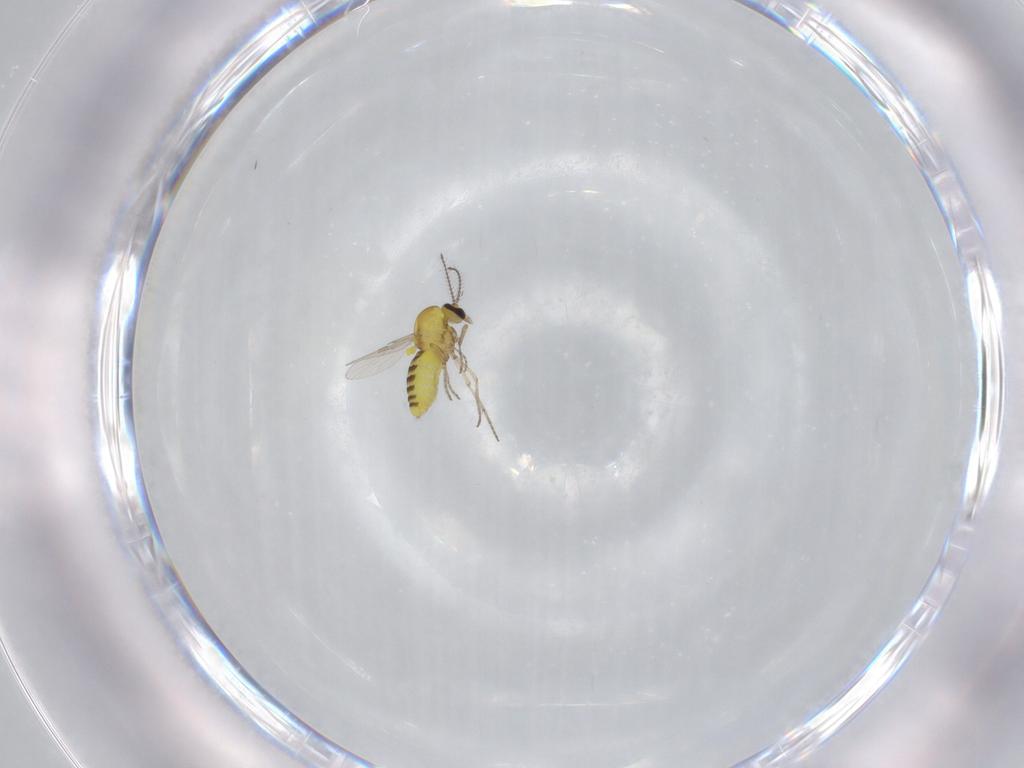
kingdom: Animalia
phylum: Arthropoda
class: Insecta
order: Diptera
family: Ceratopogonidae
